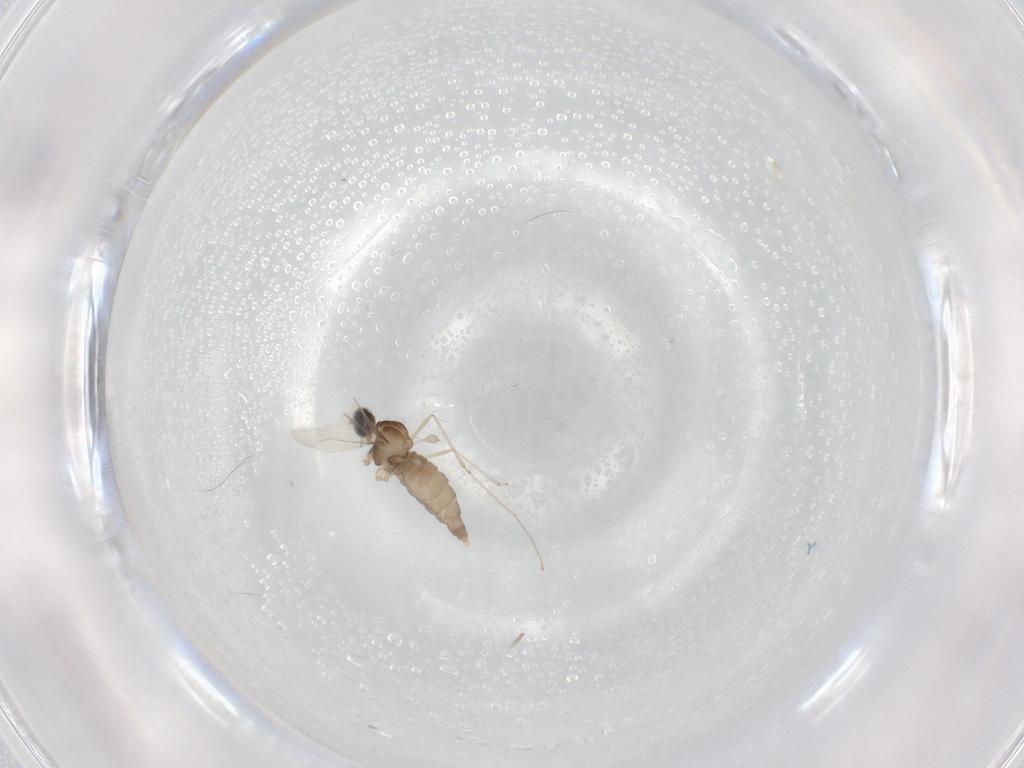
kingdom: Animalia
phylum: Arthropoda
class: Insecta
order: Diptera
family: Cecidomyiidae
